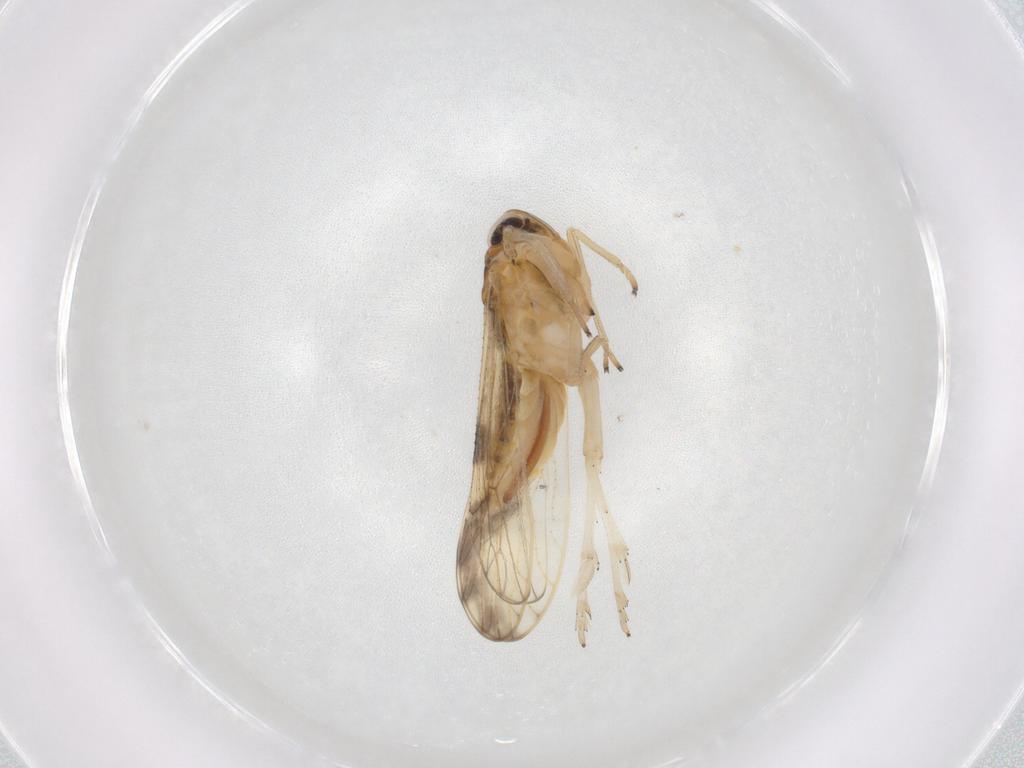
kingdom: Animalia
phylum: Arthropoda
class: Insecta
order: Hemiptera
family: Delphacidae
